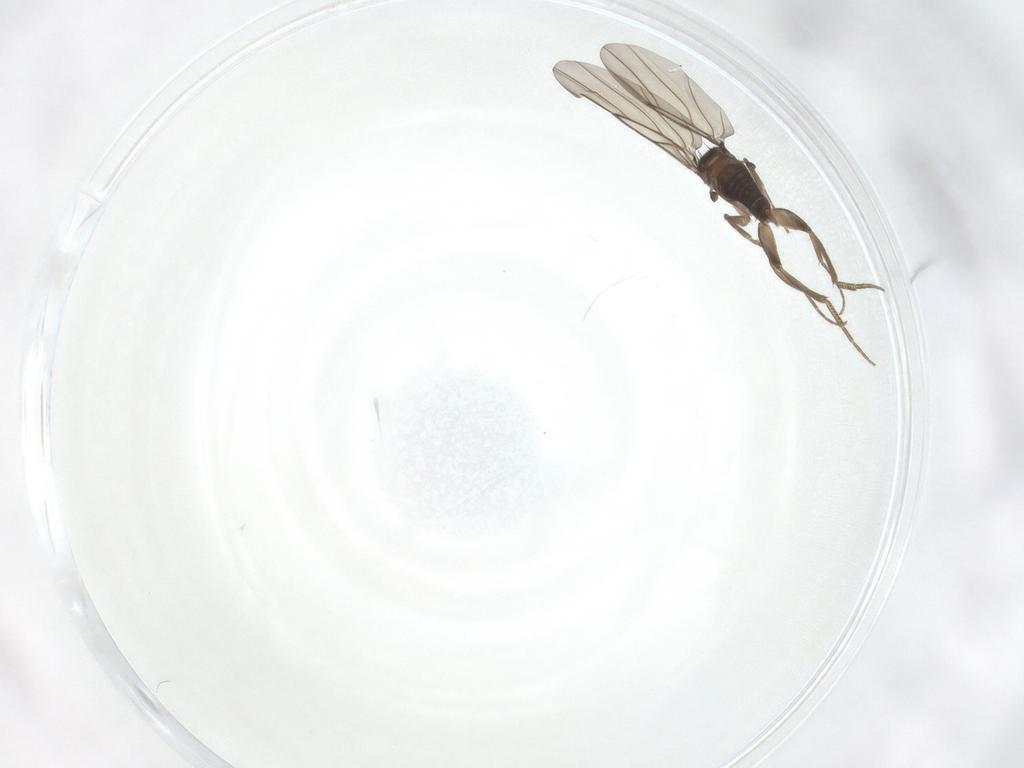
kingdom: Animalia
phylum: Arthropoda
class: Insecta
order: Diptera
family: Phoridae
